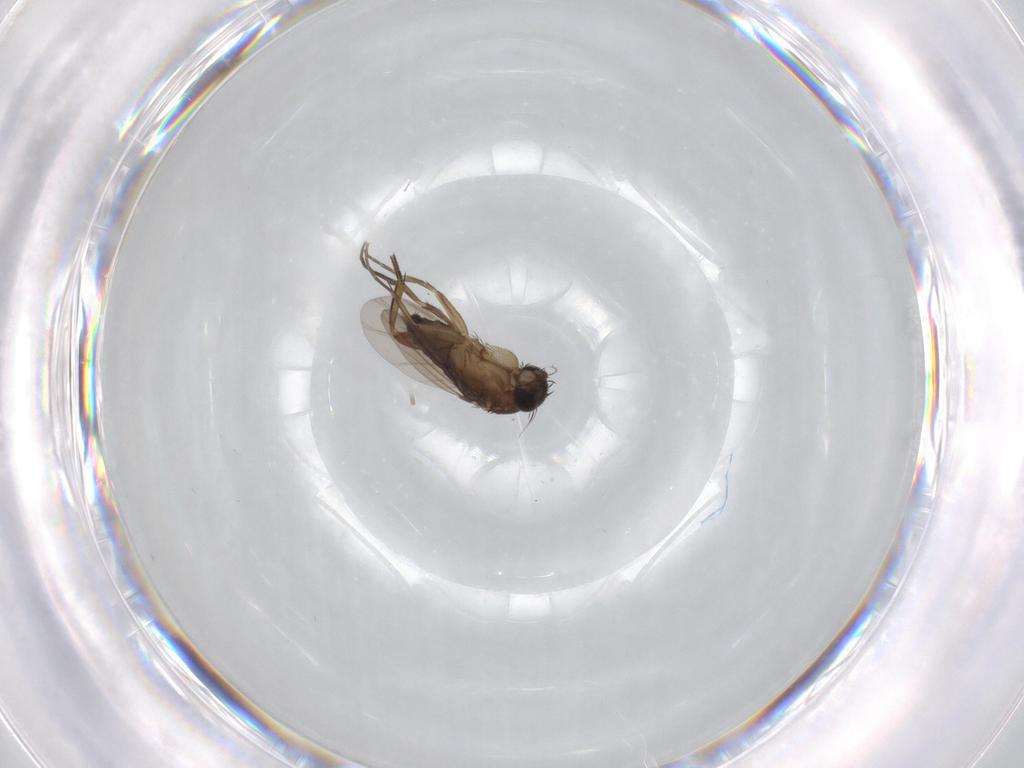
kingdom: Animalia
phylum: Arthropoda
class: Insecta
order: Diptera
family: Phoridae
